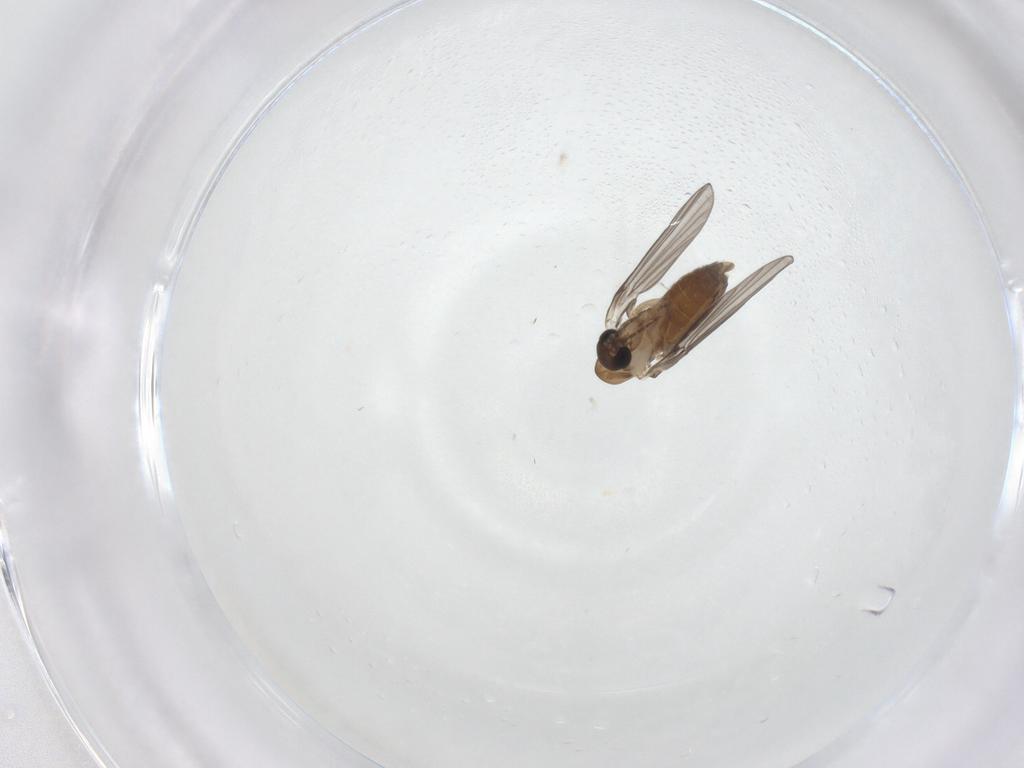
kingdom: Animalia
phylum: Arthropoda
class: Insecta
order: Diptera
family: Psychodidae
